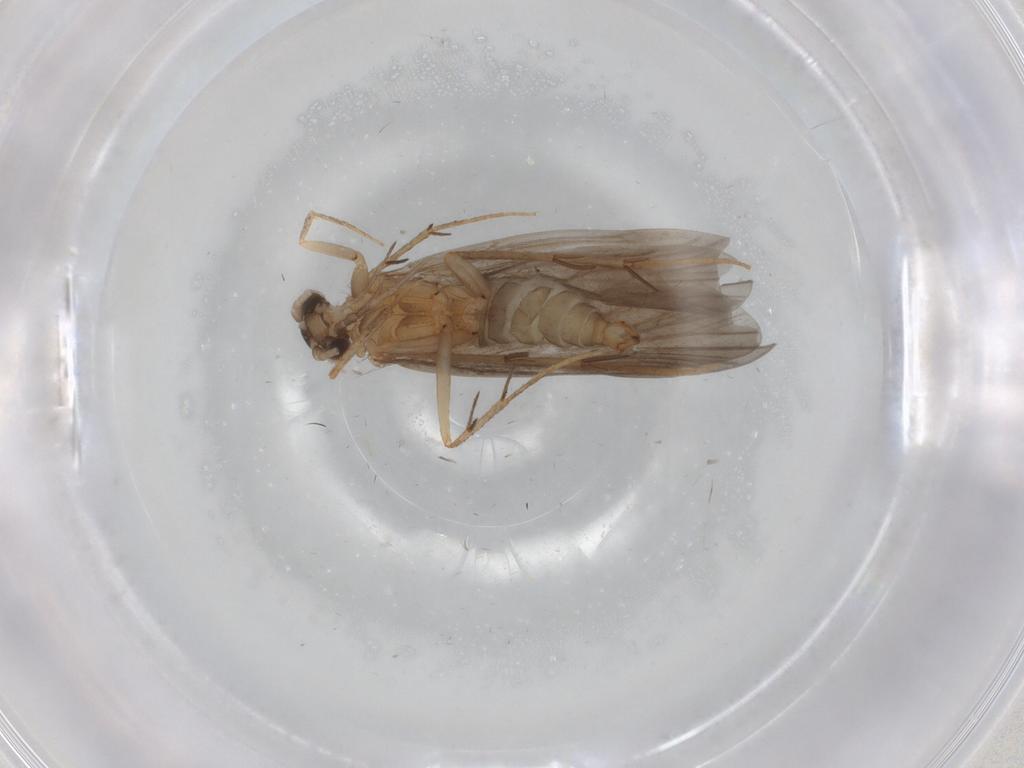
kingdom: Animalia
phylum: Arthropoda
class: Insecta
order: Trichoptera
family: Philopotamidae
